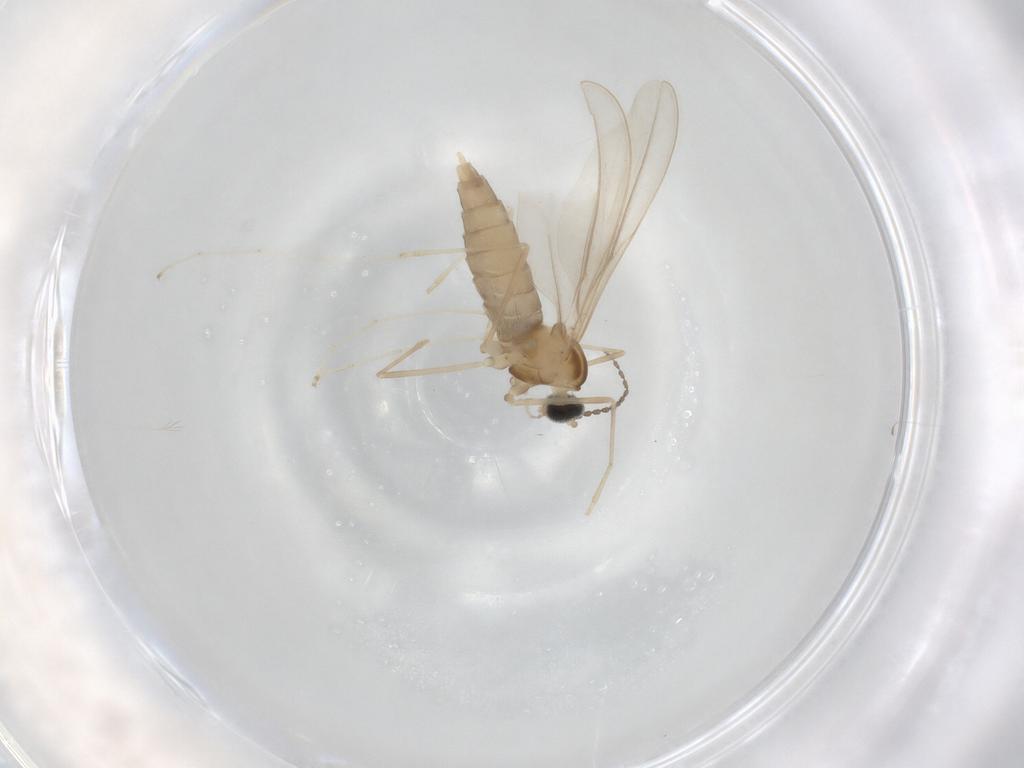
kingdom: Animalia
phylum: Arthropoda
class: Insecta
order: Diptera
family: Cecidomyiidae
